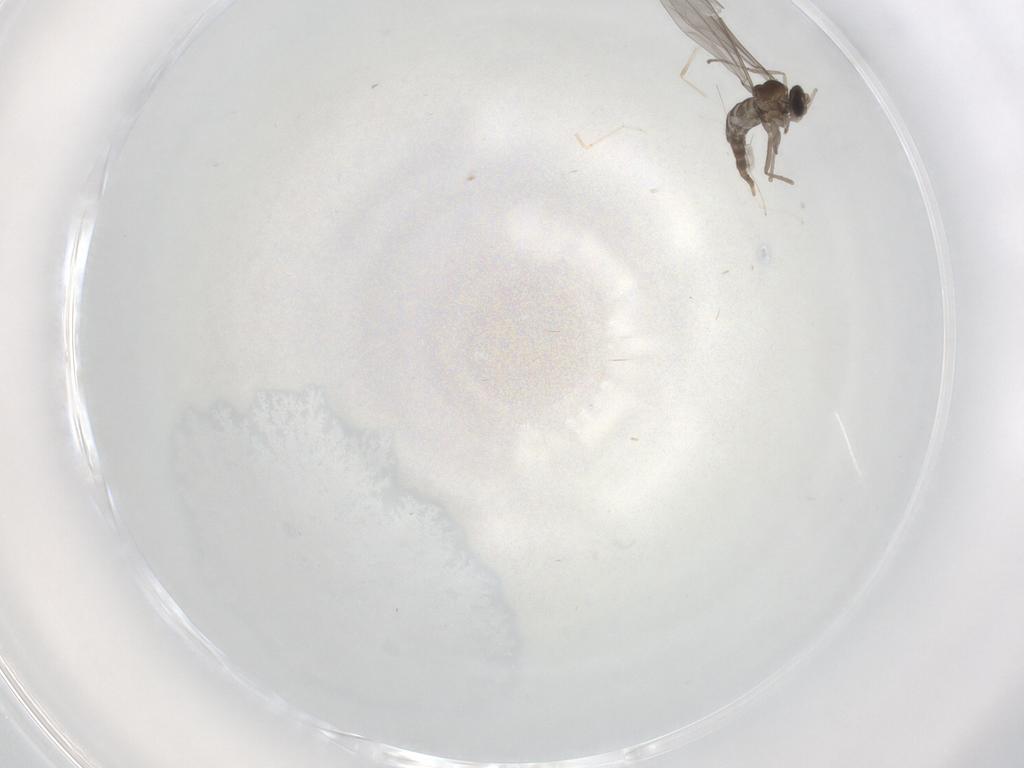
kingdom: Animalia
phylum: Arthropoda
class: Insecta
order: Diptera
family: Cecidomyiidae
